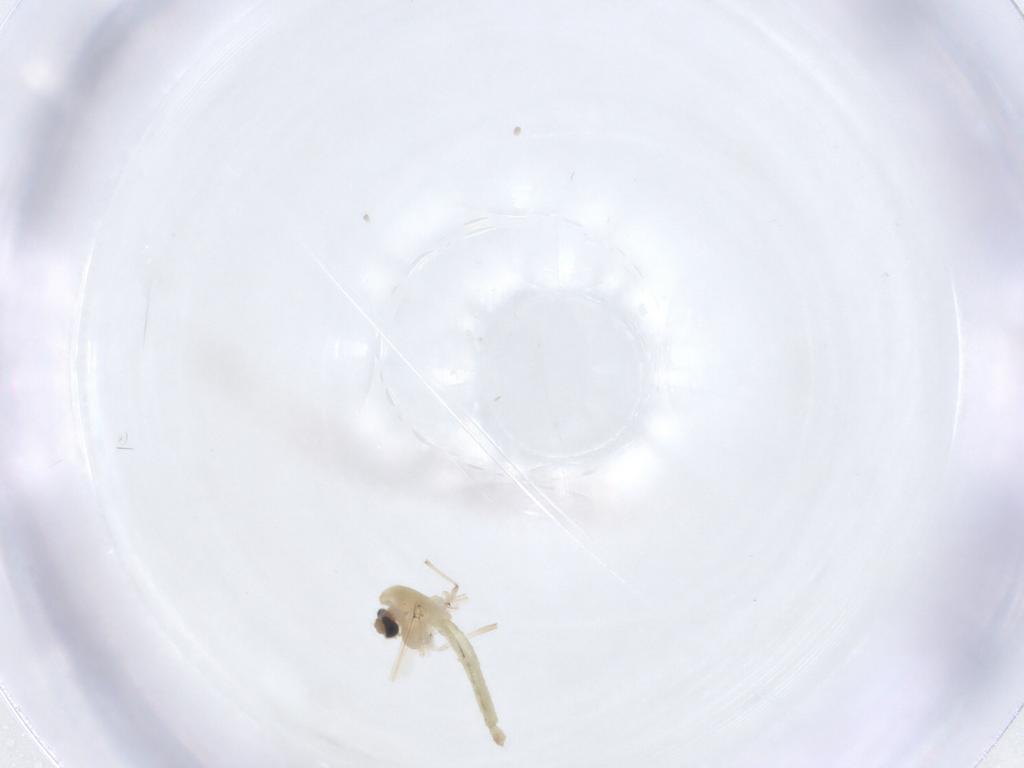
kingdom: Animalia
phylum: Arthropoda
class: Insecta
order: Diptera
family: Chironomidae
